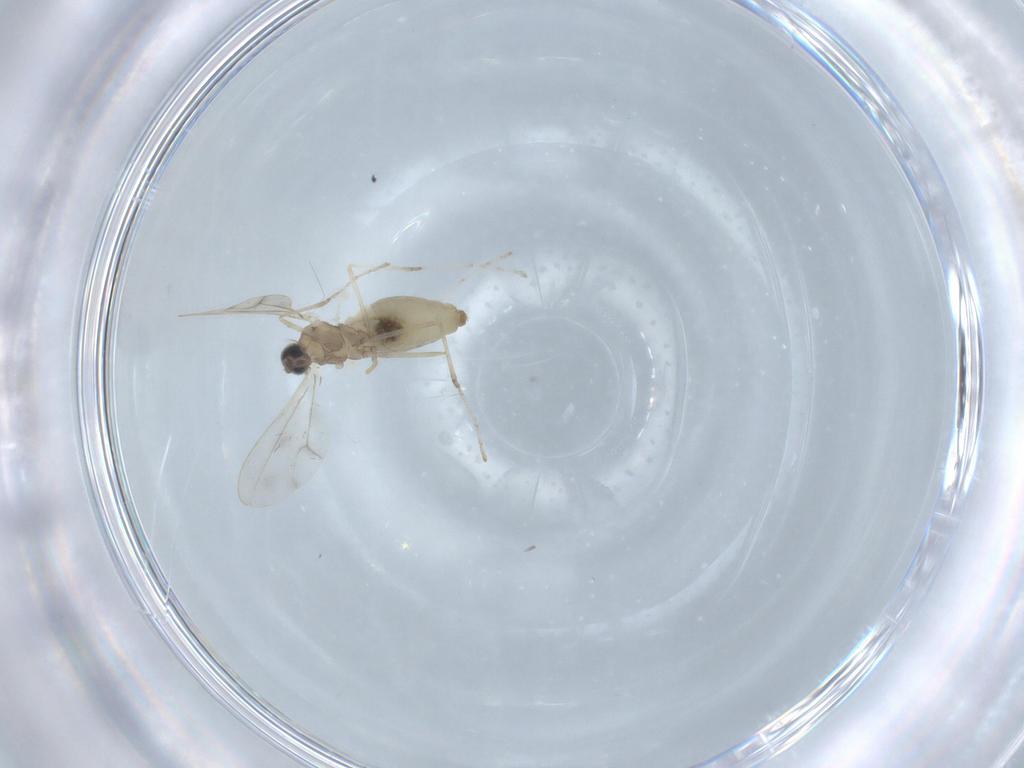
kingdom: Animalia
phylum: Arthropoda
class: Insecta
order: Diptera
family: Cecidomyiidae
